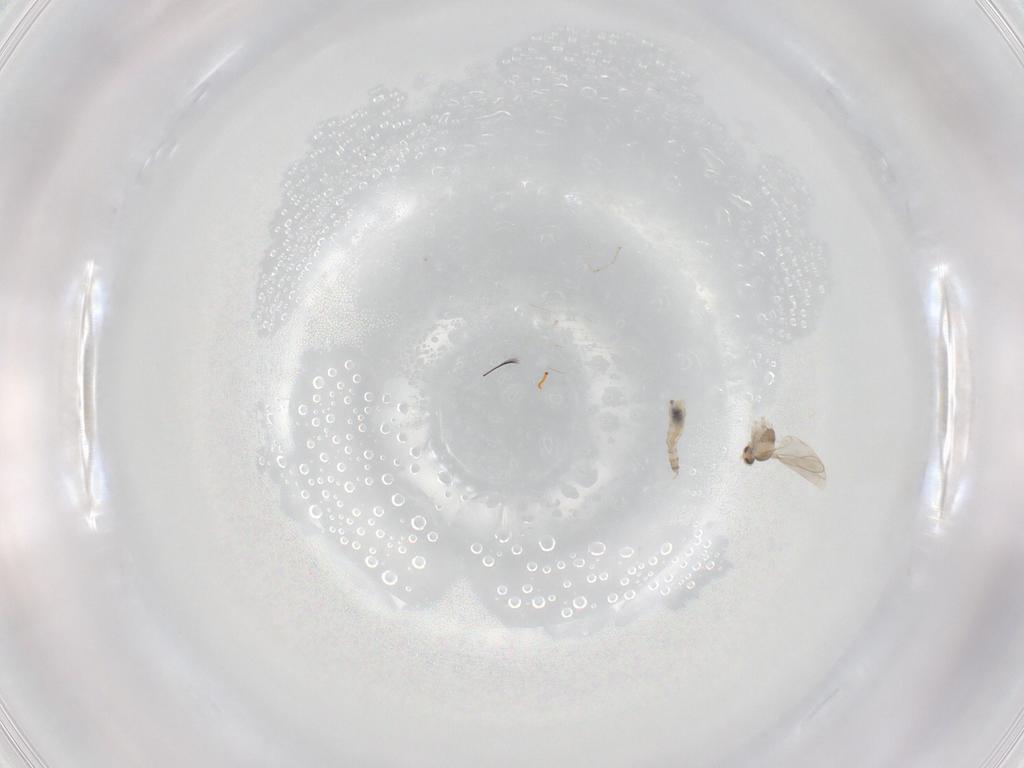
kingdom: Animalia
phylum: Arthropoda
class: Insecta
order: Diptera
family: Cecidomyiidae
